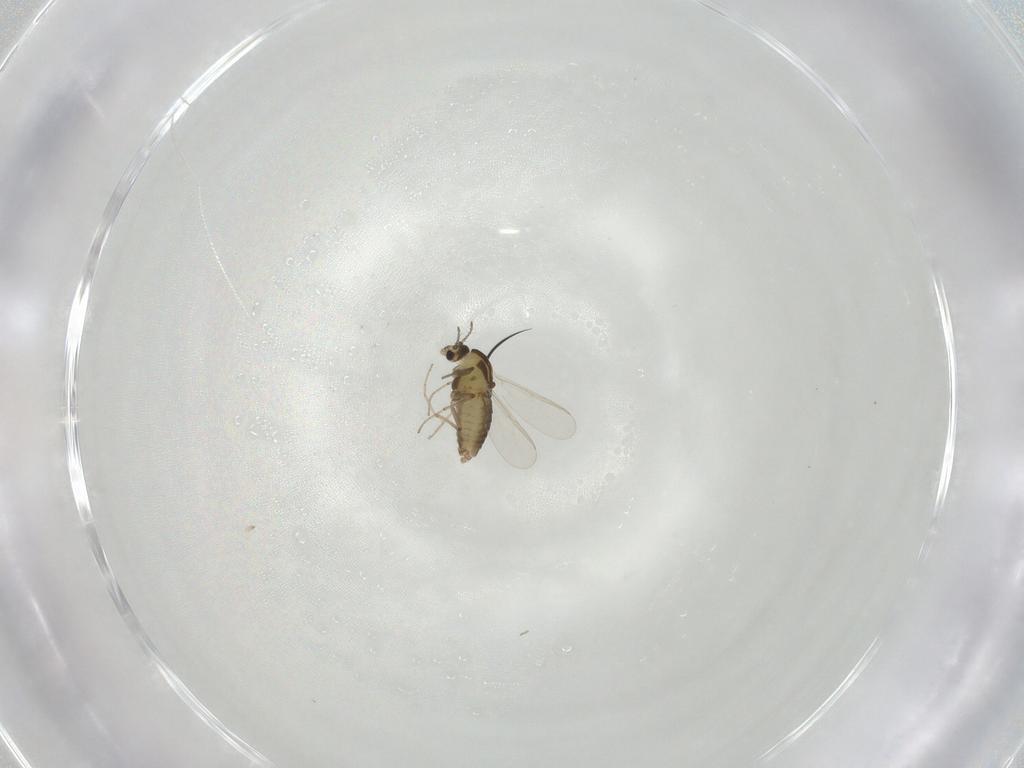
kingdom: Animalia
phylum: Arthropoda
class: Insecta
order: Diptera
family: Chironomidae
